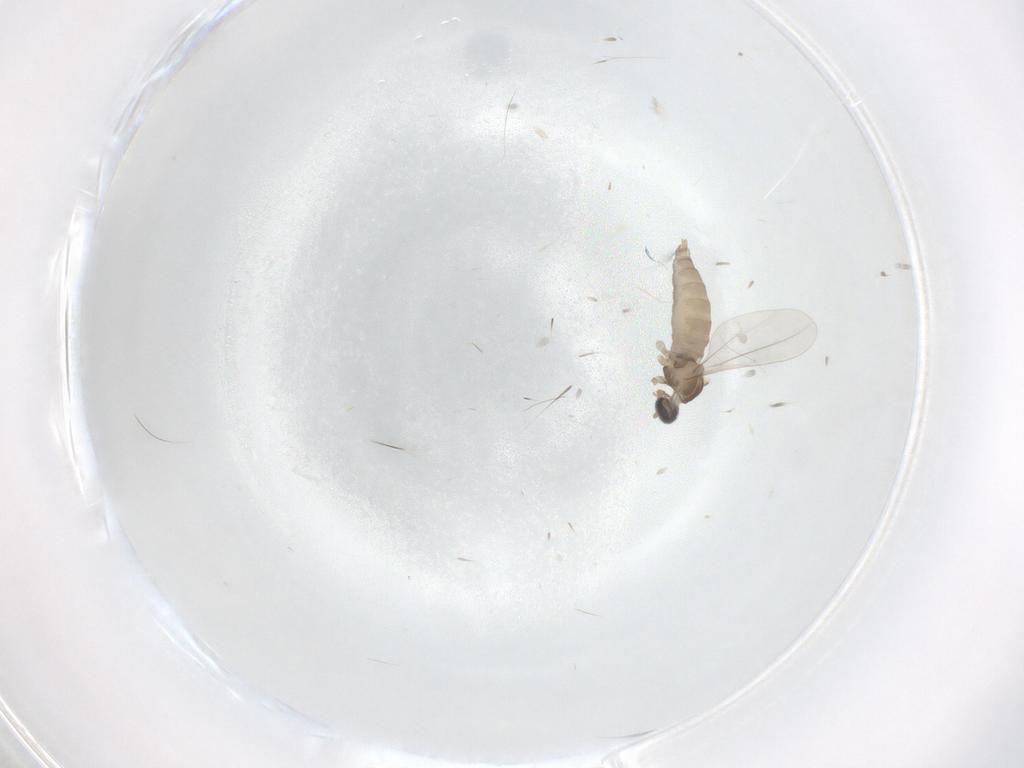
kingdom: Animalia
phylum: Arthropoda
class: Insecta
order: Diptera
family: Cecidomyiidae
